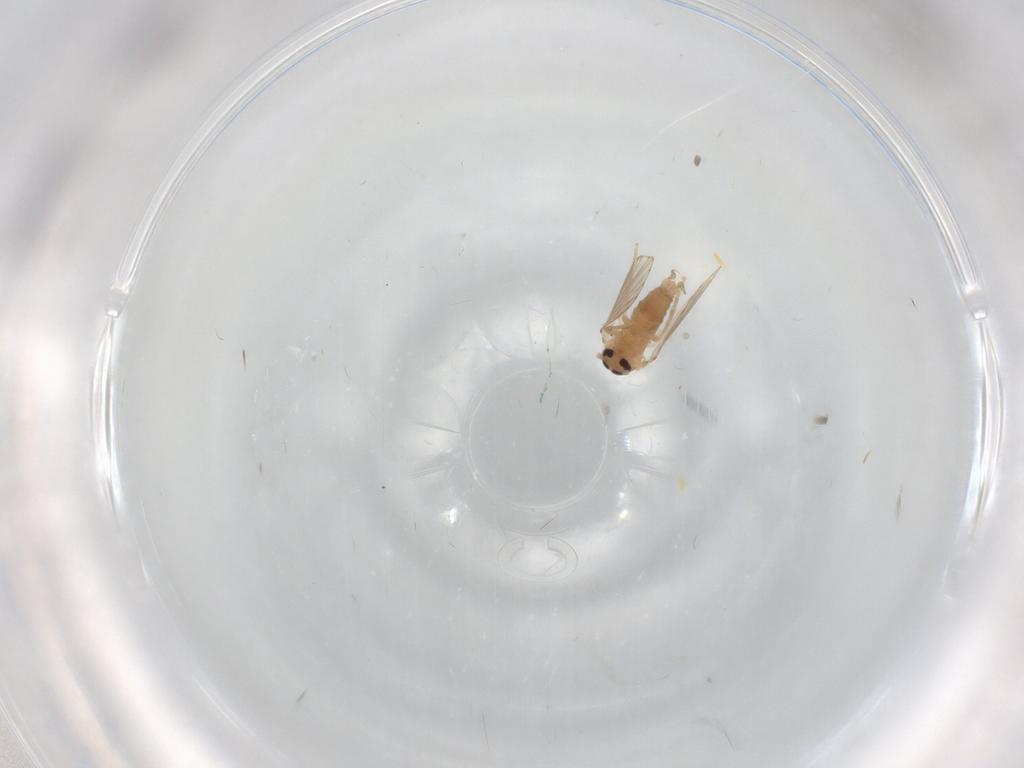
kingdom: Animalia
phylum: Arthropoda
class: Insecta
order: Diptera
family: Psychodidae
